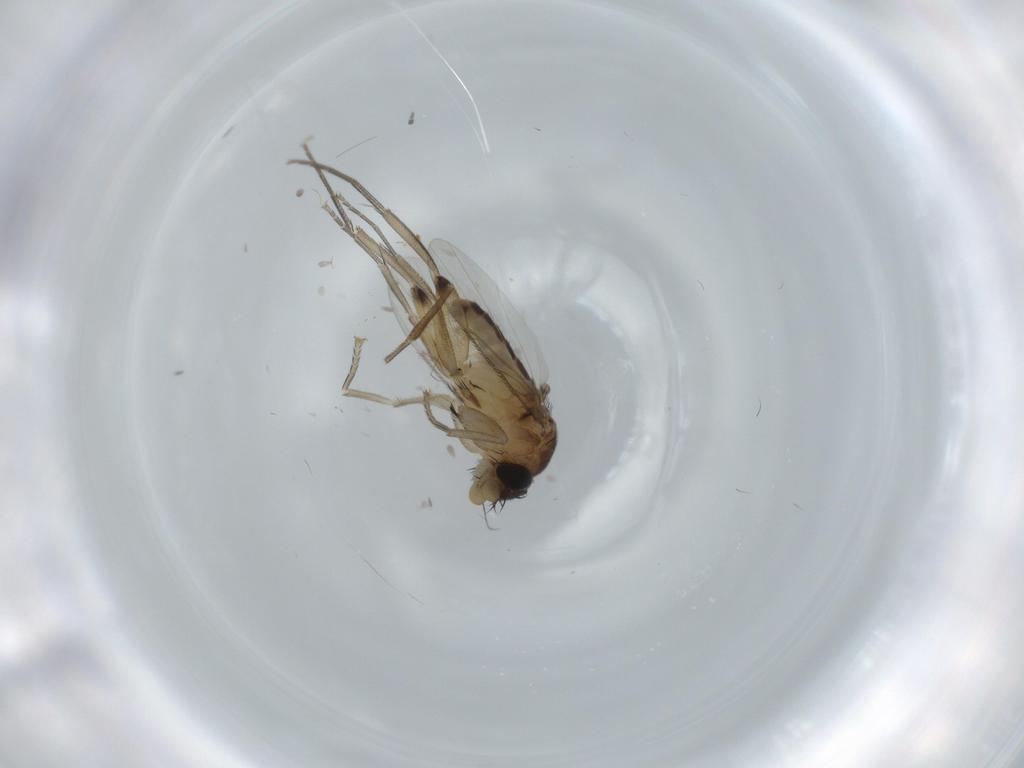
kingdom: Animalia
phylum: Arthropoda
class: Insecta
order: Diptera
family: Phoridae
